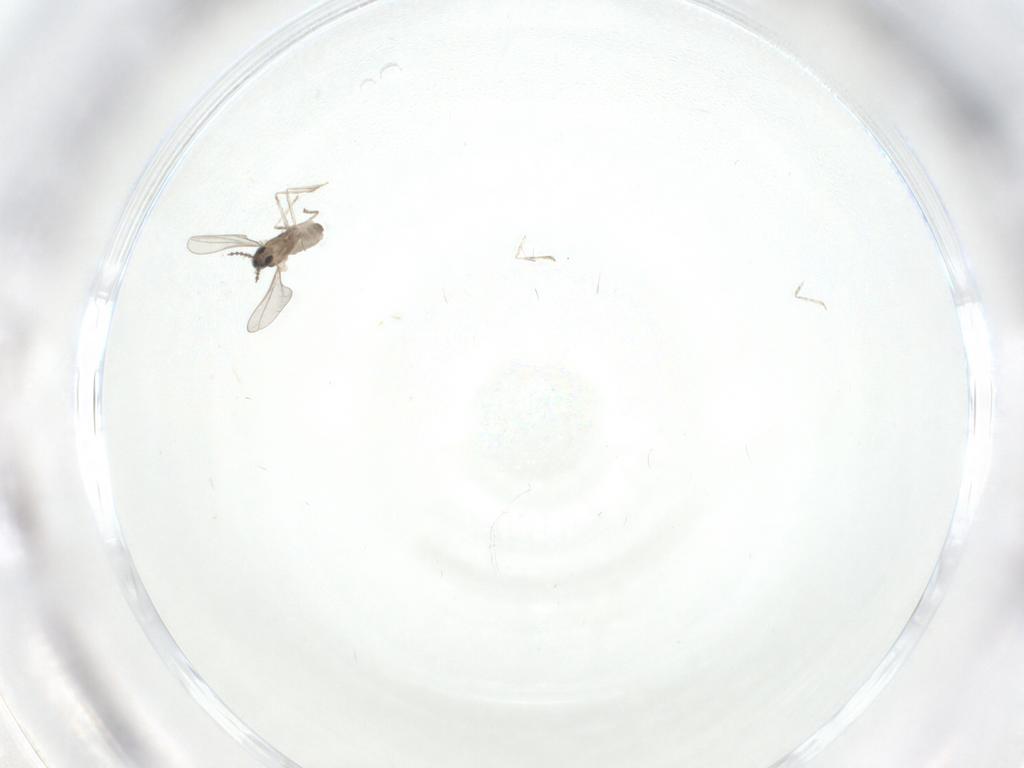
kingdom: Animalia
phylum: Arthropoda
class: Insecta
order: Diptera
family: Cecidomyiidae
